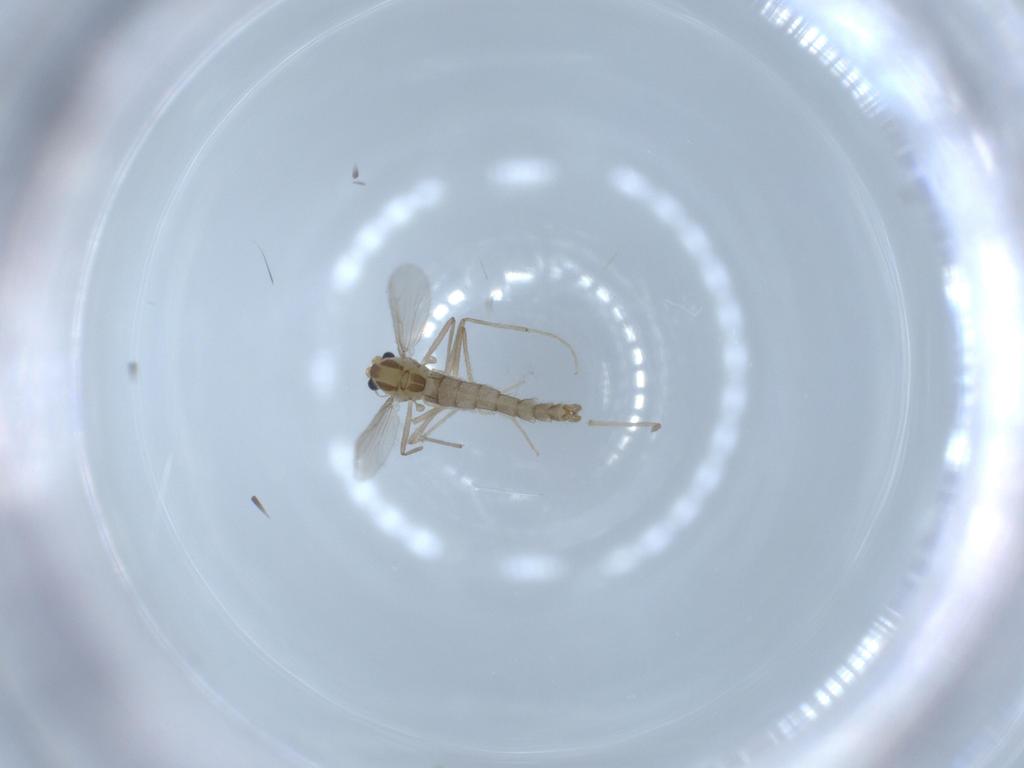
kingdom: Animalia
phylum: Arthropoda
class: Insecta
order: Diptera
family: Chironomidae
